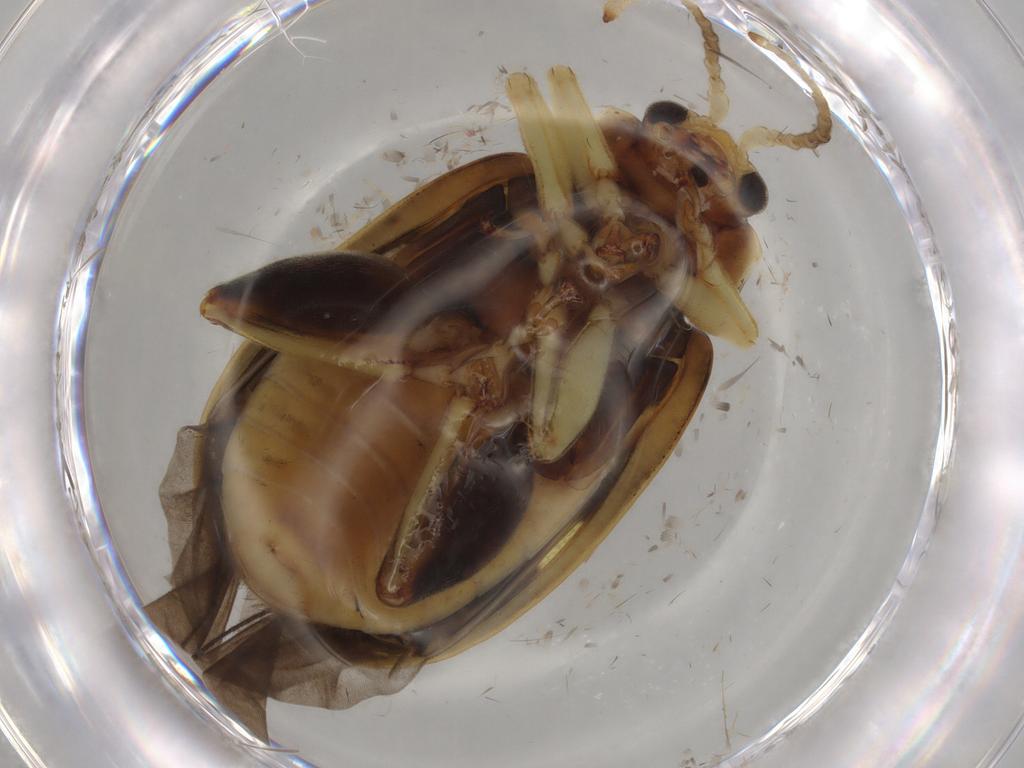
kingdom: Animalia
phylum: Arthropoda
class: Insecta
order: Coleoptera
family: Chrysomelidae
